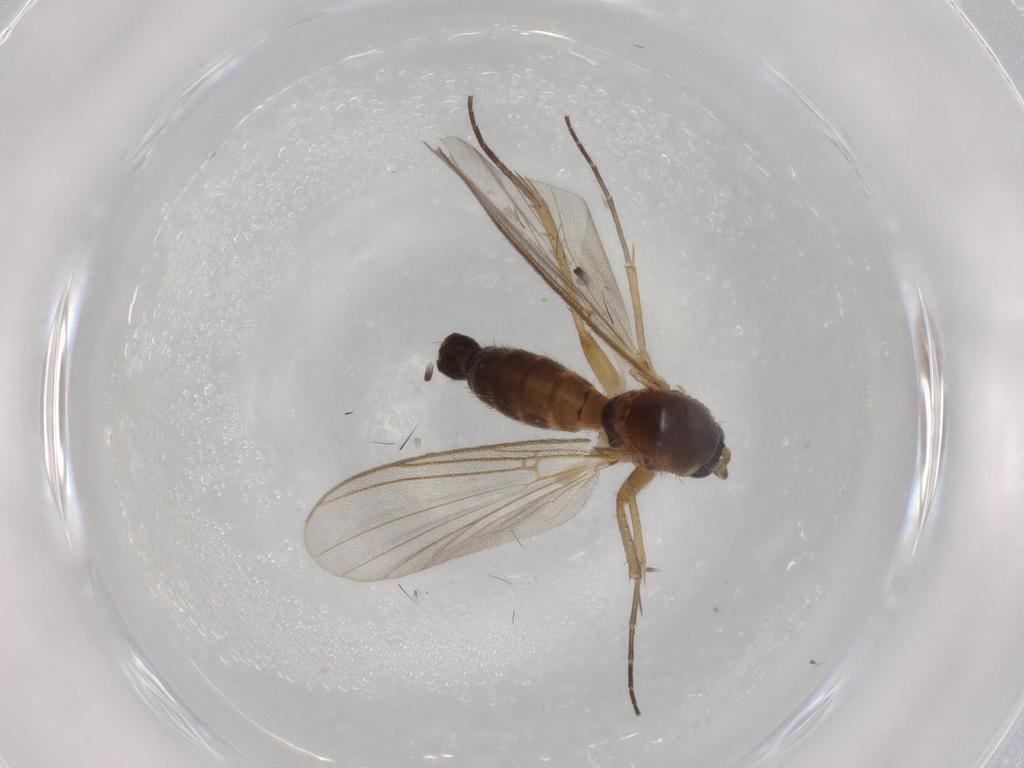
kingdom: Animalia
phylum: Arthropoda
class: Insecta
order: Diptera
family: Mycetophilidae
